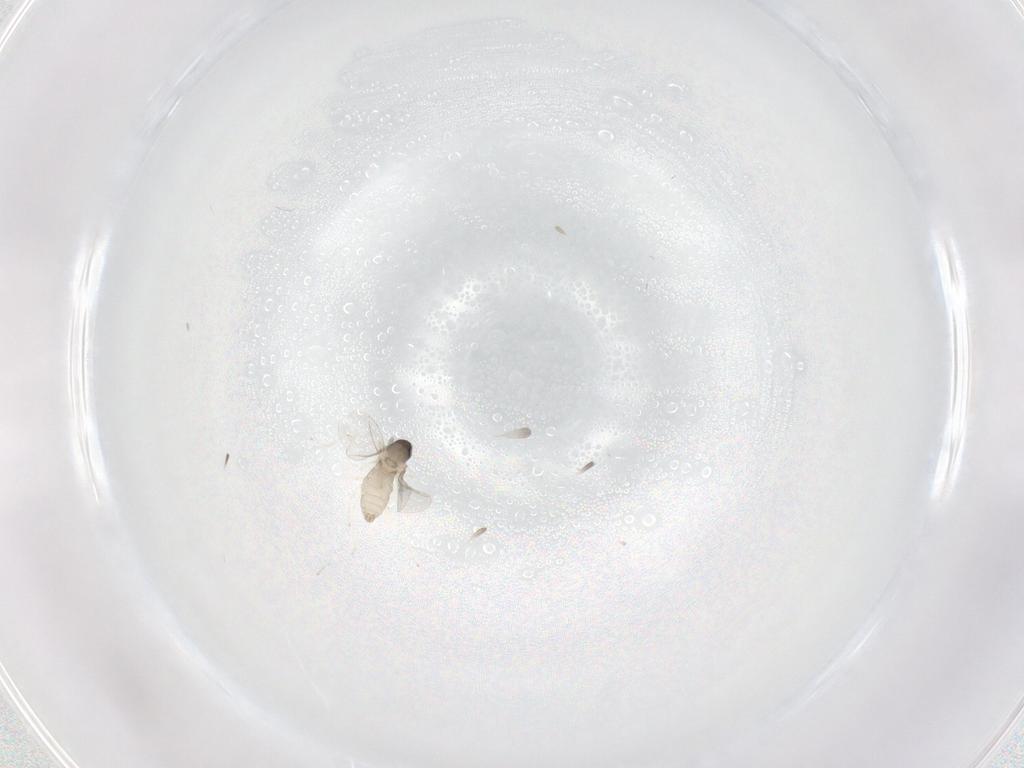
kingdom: Animalia
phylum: Arthropoda
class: Insecta
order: Diptera
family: Cecidomyiidae
